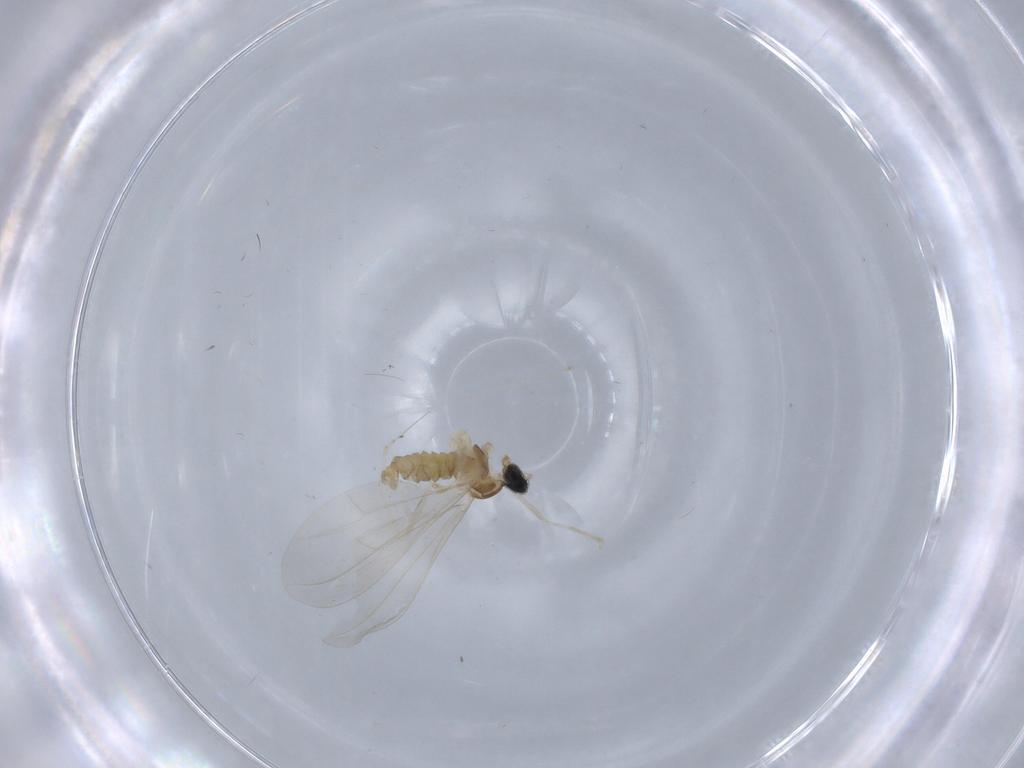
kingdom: Animalia
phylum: Arthropoda
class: Insecta
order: Diptera
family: Cecidomyiidae
